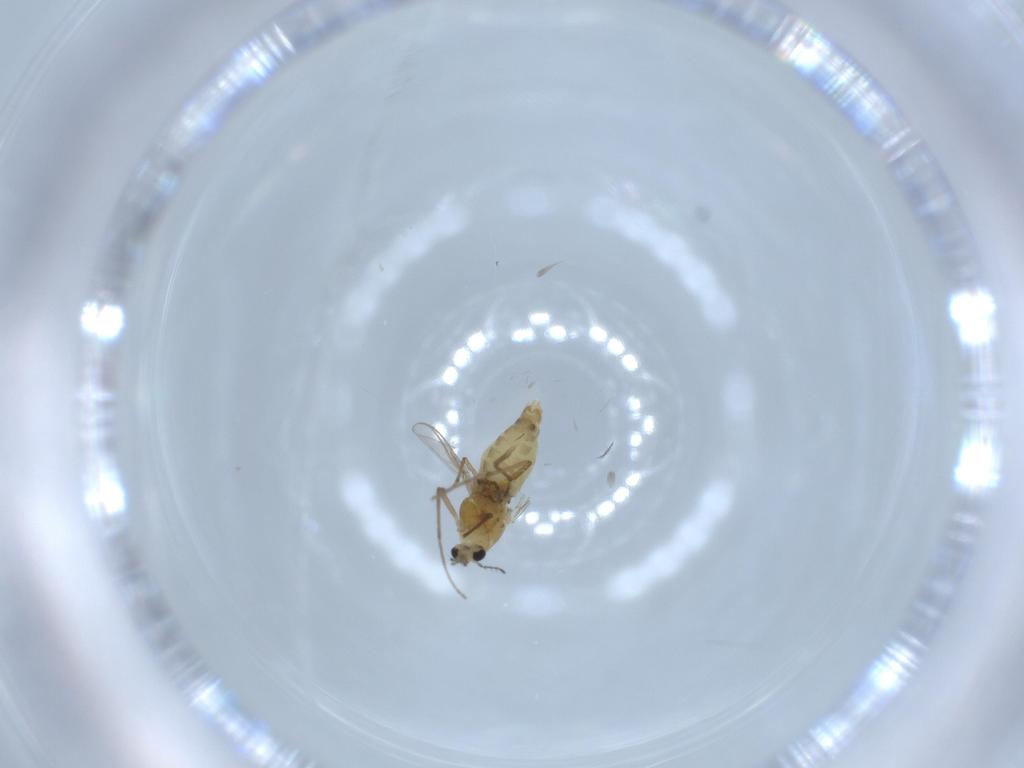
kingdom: Animalia
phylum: Arthropoda
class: Insecta
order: Diptera
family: Chironomidae
